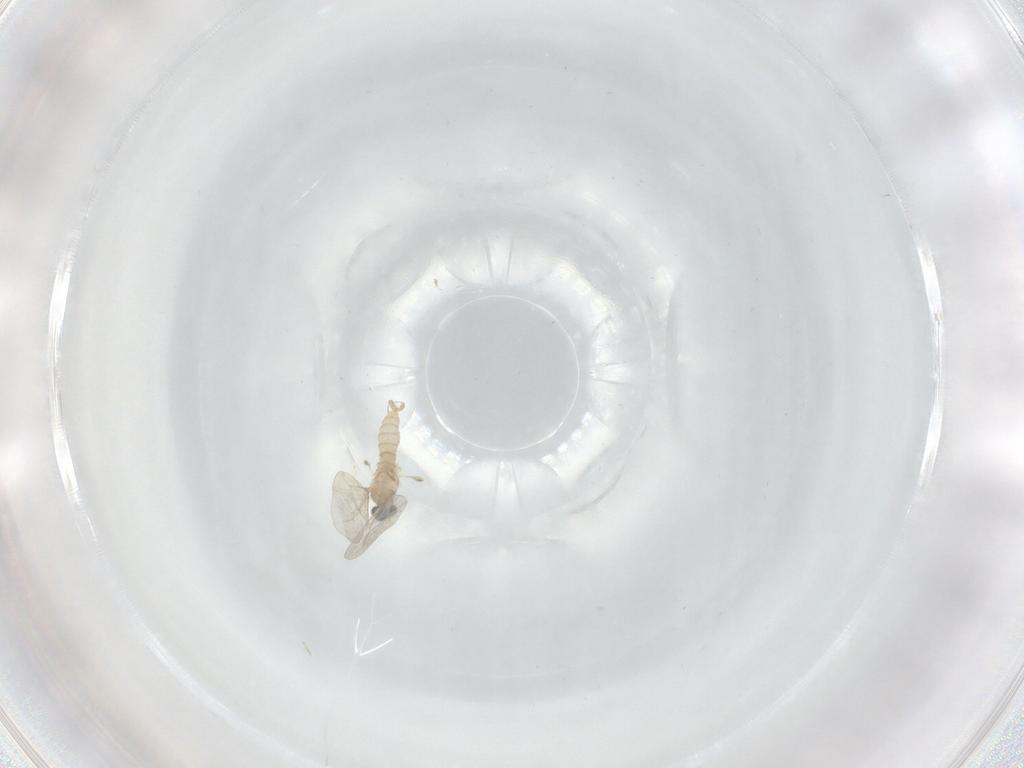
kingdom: Animalia
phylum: Arthropoda
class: Insecta
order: Diptera
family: Cecidomyiidae
